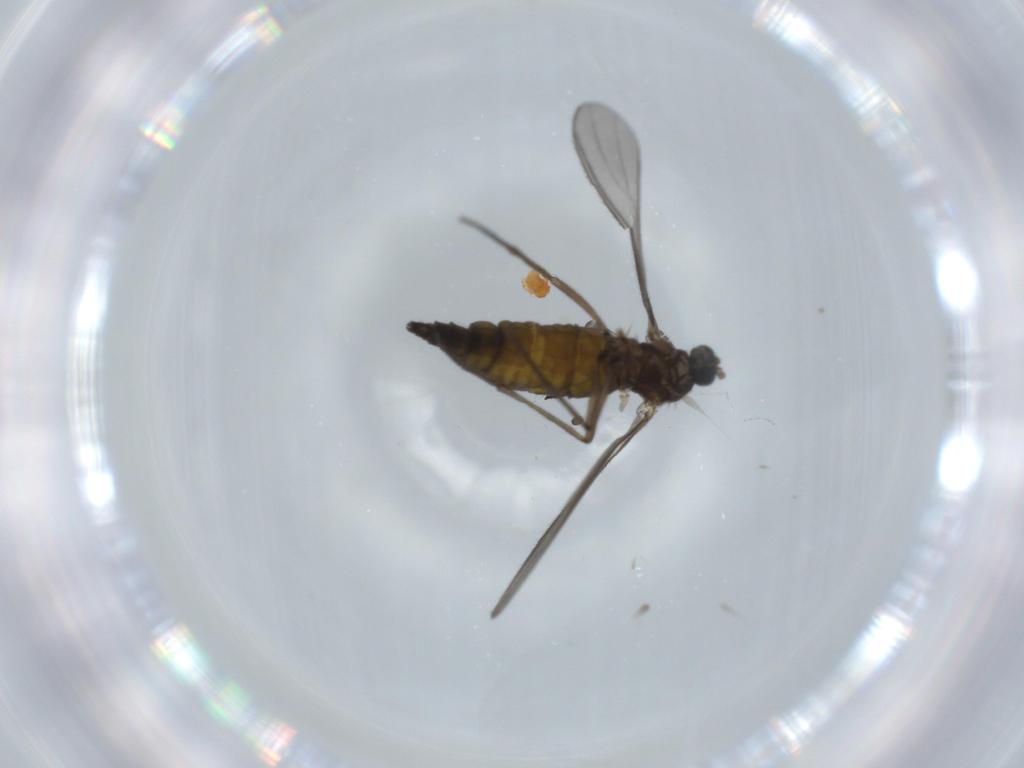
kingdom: Animalia
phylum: Arthropoda
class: Insecta
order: Diptera
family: Sciaridae
